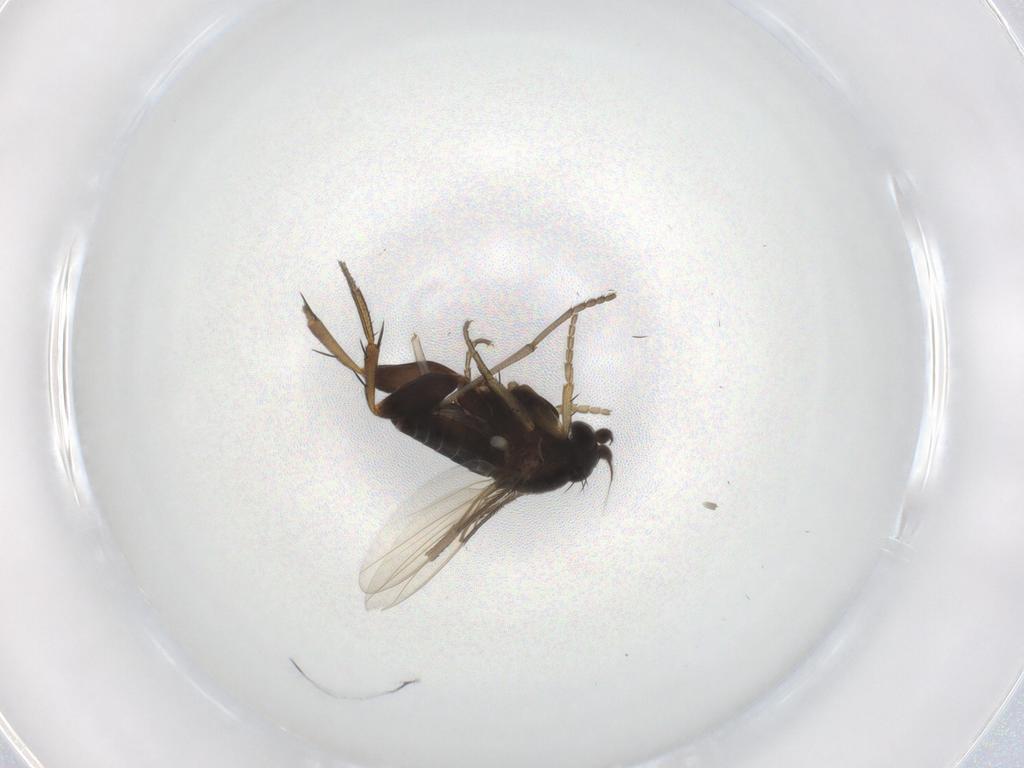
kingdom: Animalia
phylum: Arthropoda
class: Insecta
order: Diptera
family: Phoridae
